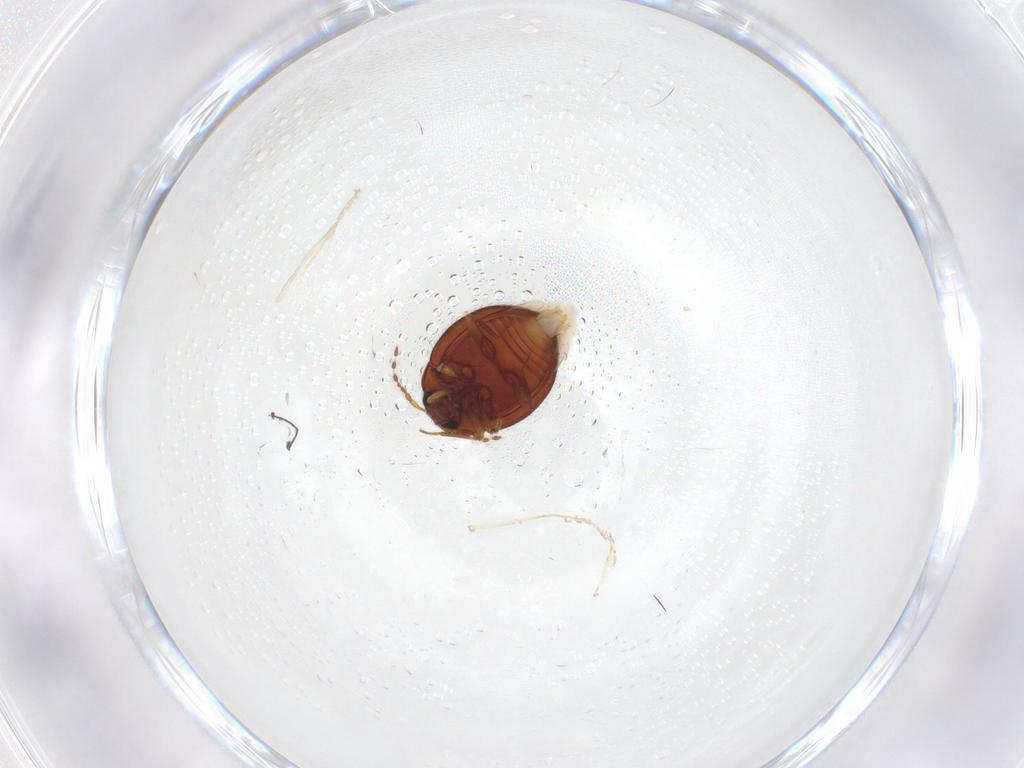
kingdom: Animalia
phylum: Arthropoda
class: Insecta
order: Coleoptera
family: Anamorphidae
